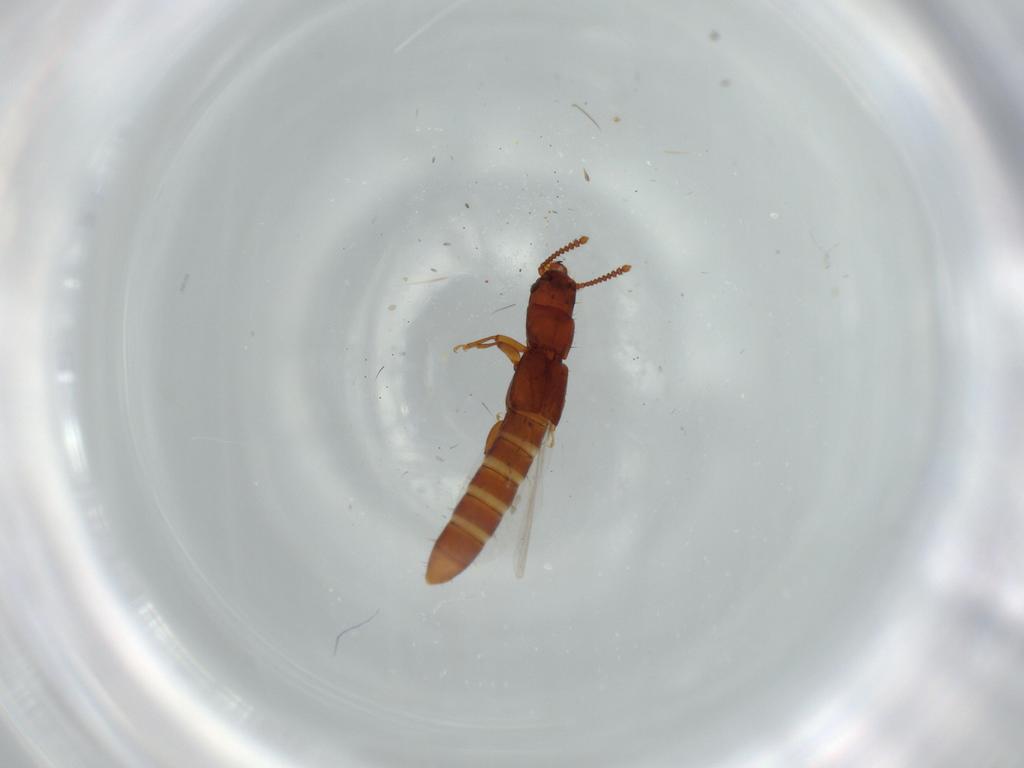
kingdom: Animalia
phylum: Arthropoda
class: Insecta
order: Coleoptera
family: Staphylinidae
